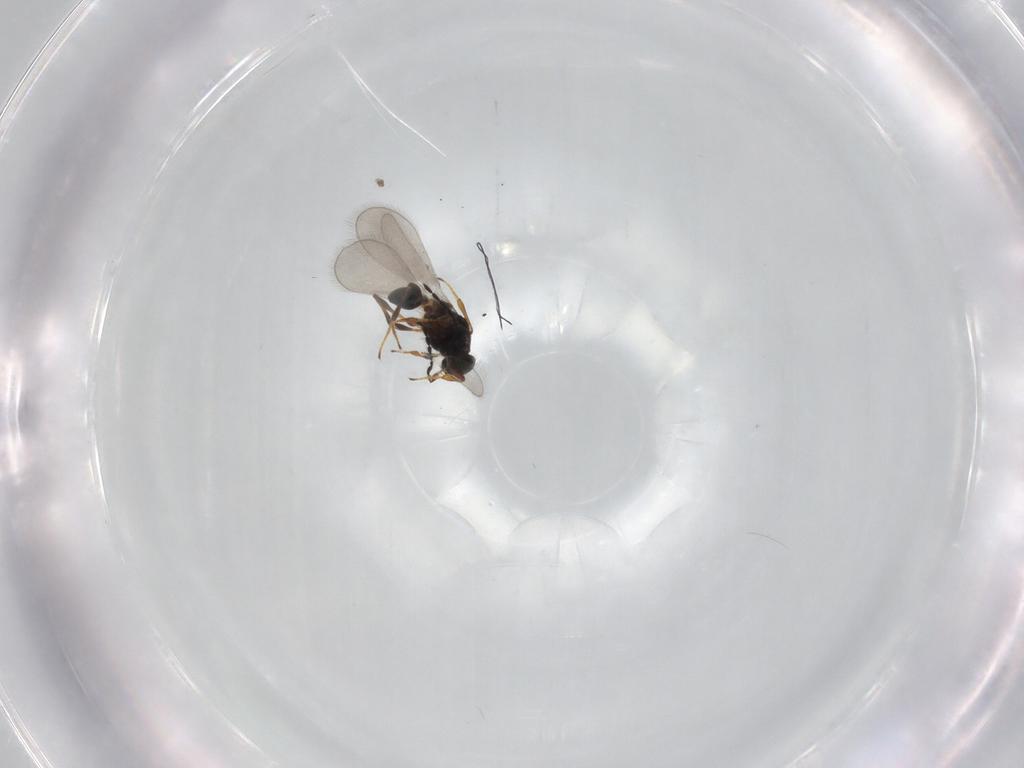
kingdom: Animalia
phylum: Arthropoda
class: Insecta
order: Hymenoptera
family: Platygastridae
